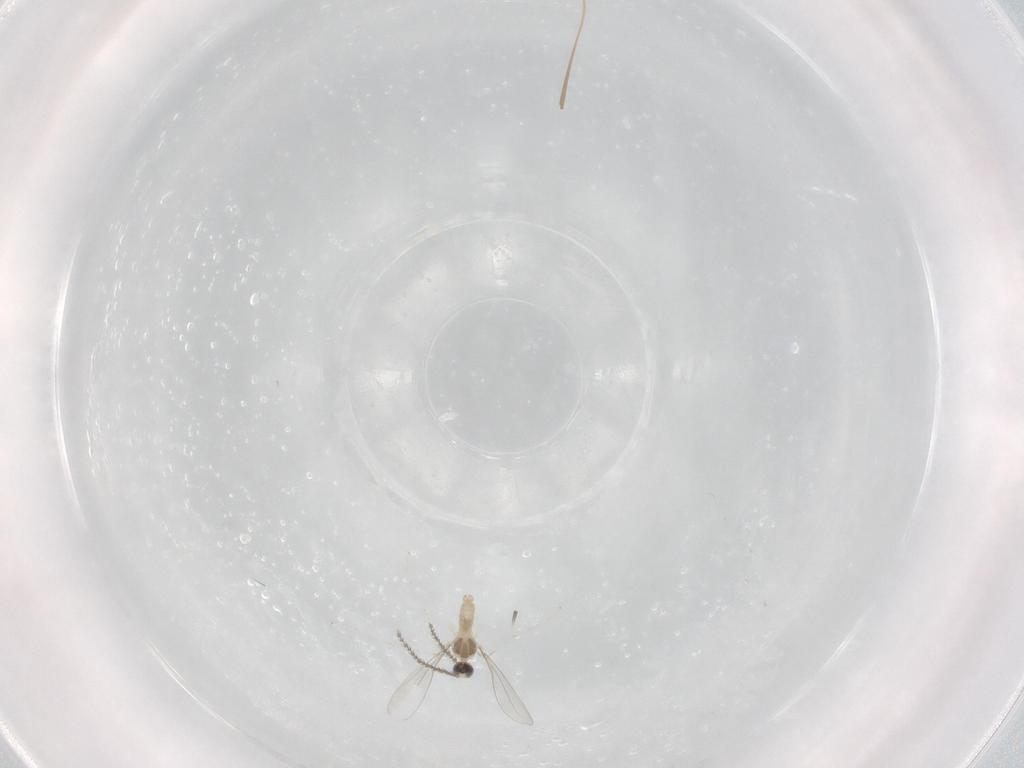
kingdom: Animalia
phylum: Arthropoda
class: Insecta
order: Diptera
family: Cecidomyiidae
